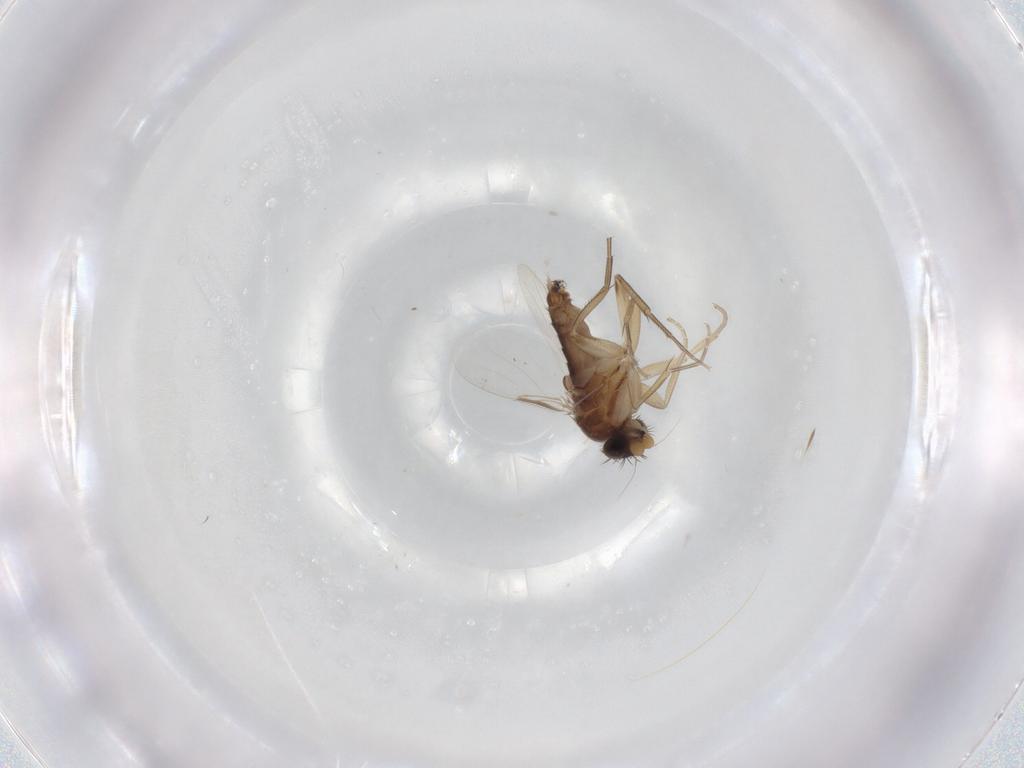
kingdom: Animalia
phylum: Arthropoda
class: Insecta
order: Diptera
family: Phoridae
